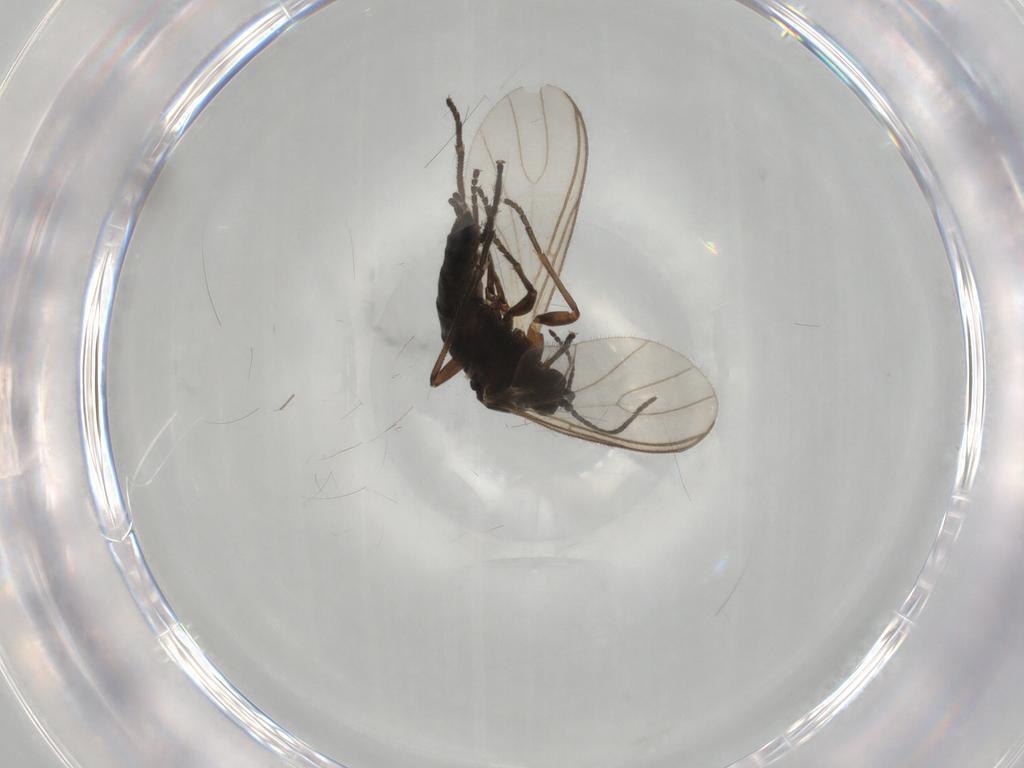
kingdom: Animalia
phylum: Arthropoda
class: Insecta
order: Diptera
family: Sciaridae
